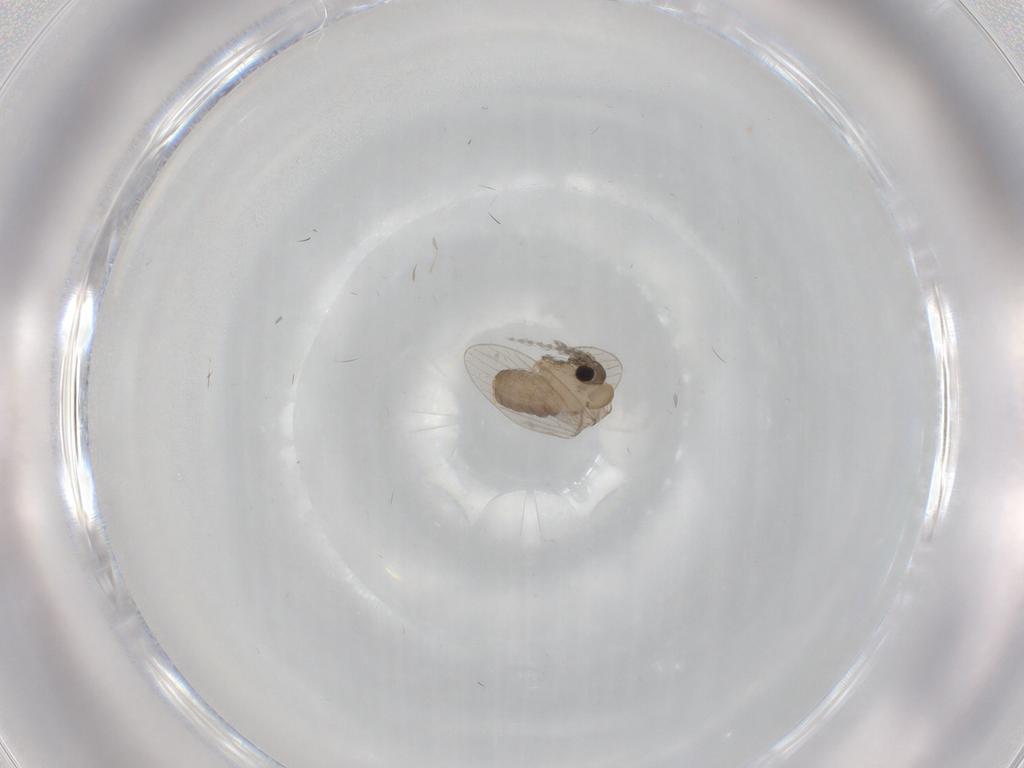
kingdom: Animalia
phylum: Arthropoda
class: Insecta
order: Diptera
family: Psychodidae
